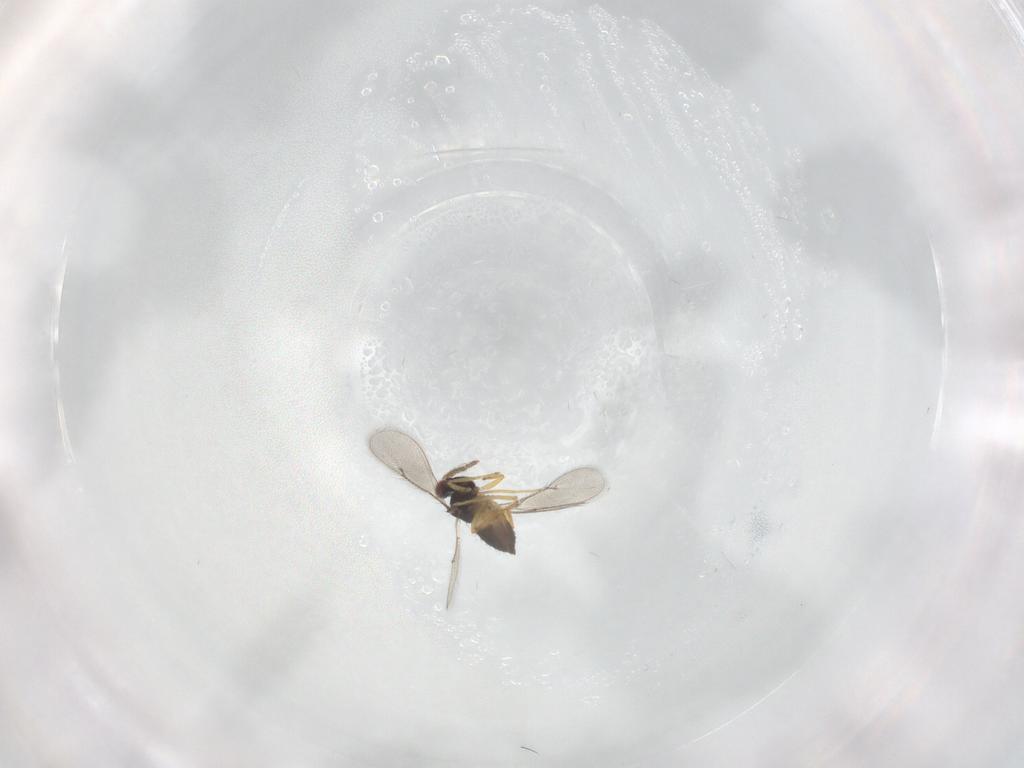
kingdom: Animalia
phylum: Arthropoda
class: Insecta
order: Hymenoptera
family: Eulophidae
